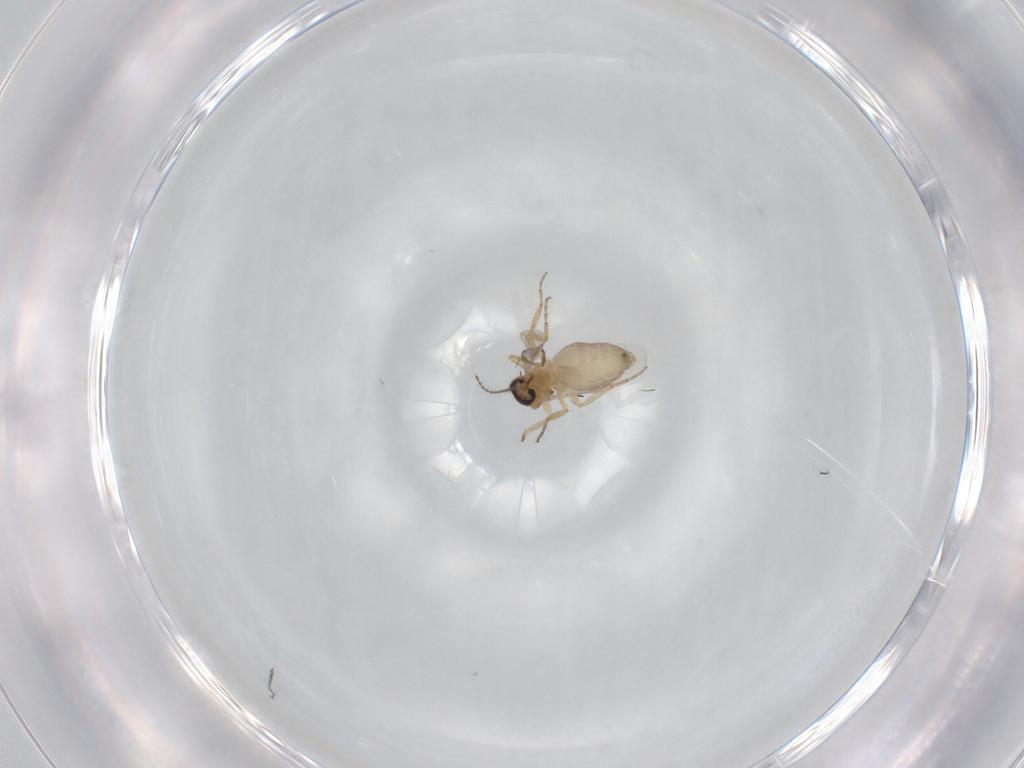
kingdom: Animalia
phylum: Arthropoda
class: Insecta
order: Diptera
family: Ceratopogonidae
